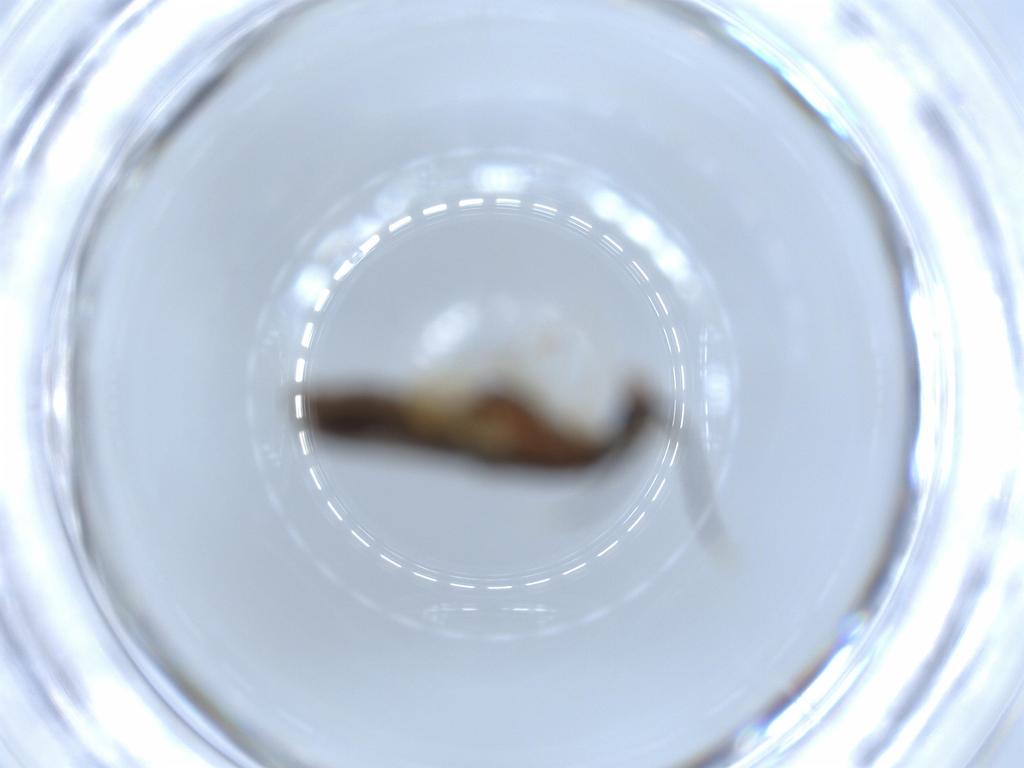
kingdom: Animalia
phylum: Arthropoda
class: Insecta
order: Coleoptera
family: Cantharidae
